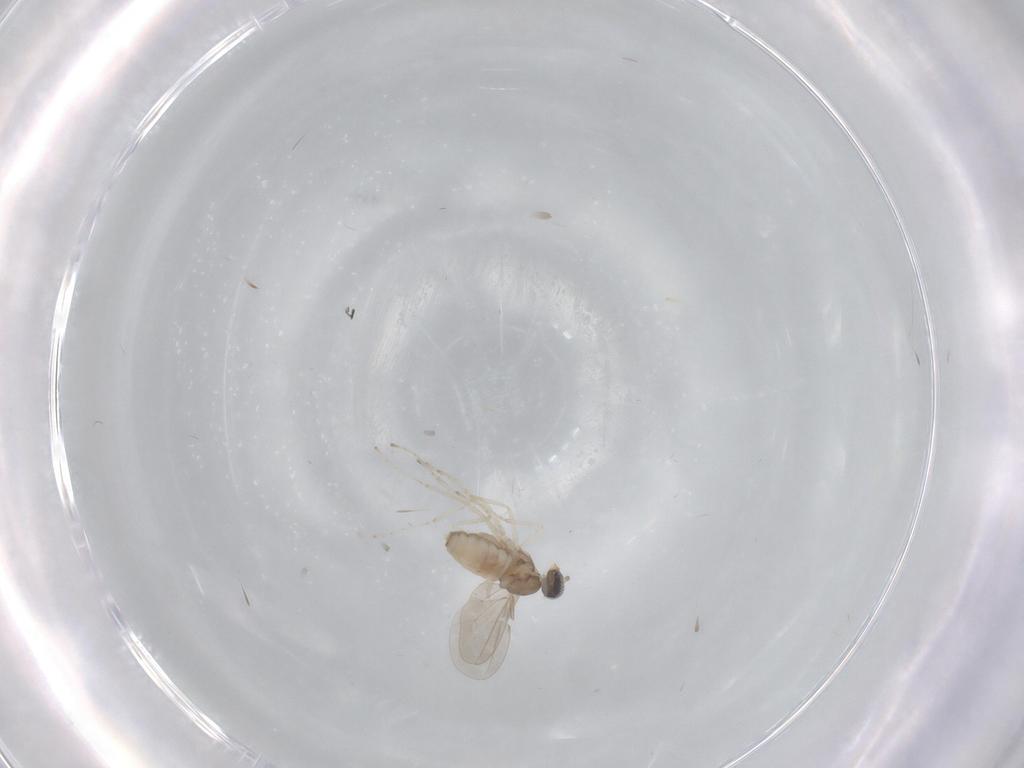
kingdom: Animalia
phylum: Arthropoda
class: Insecta
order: Diptera
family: Cecidomyiidae
